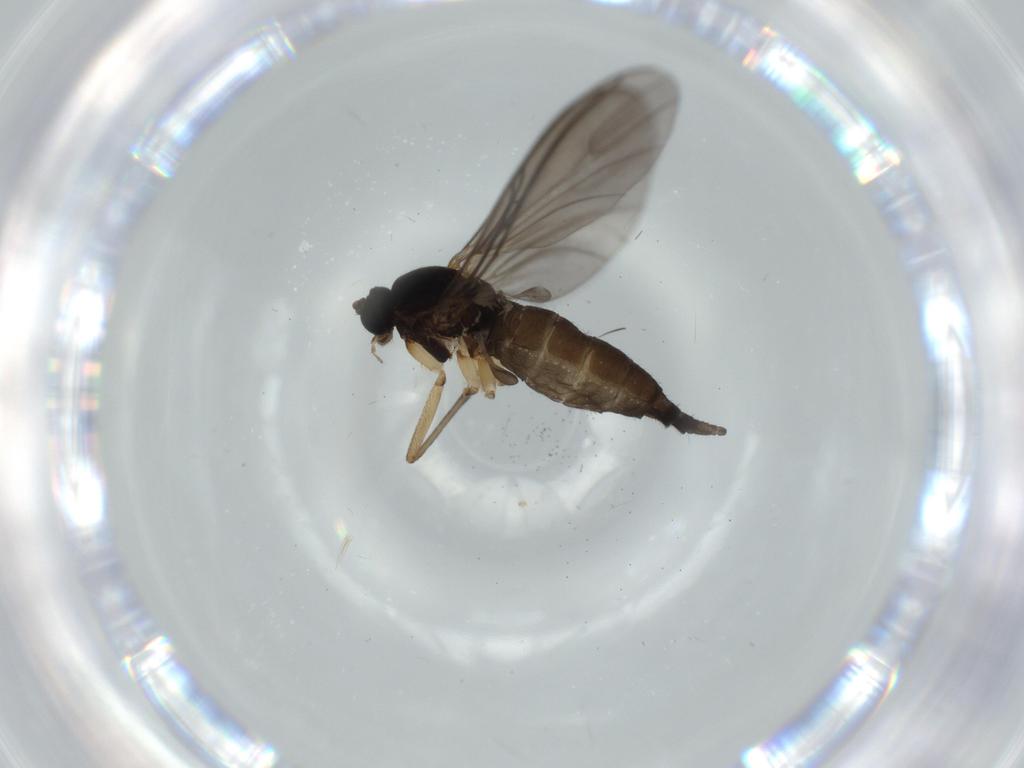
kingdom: Animalia
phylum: Arthropoda
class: Insecta
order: Diptera
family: Sciaridae
